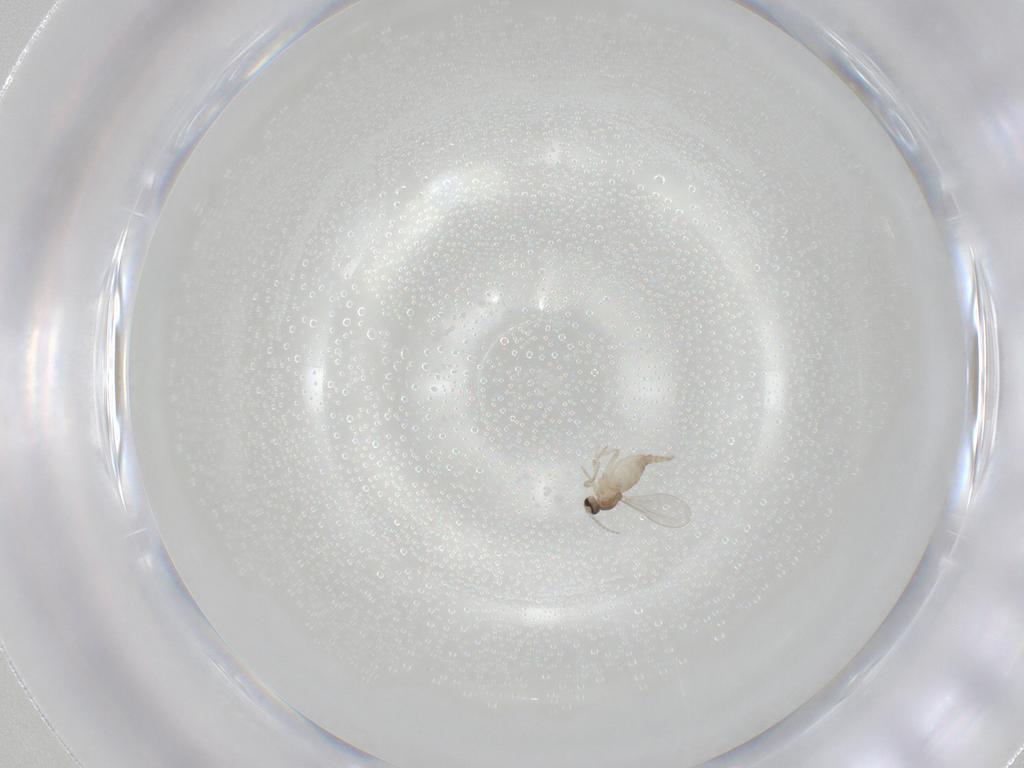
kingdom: Animalia
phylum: Arthropoda
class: Insecta
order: Diptera
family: Cecidomyiidae
